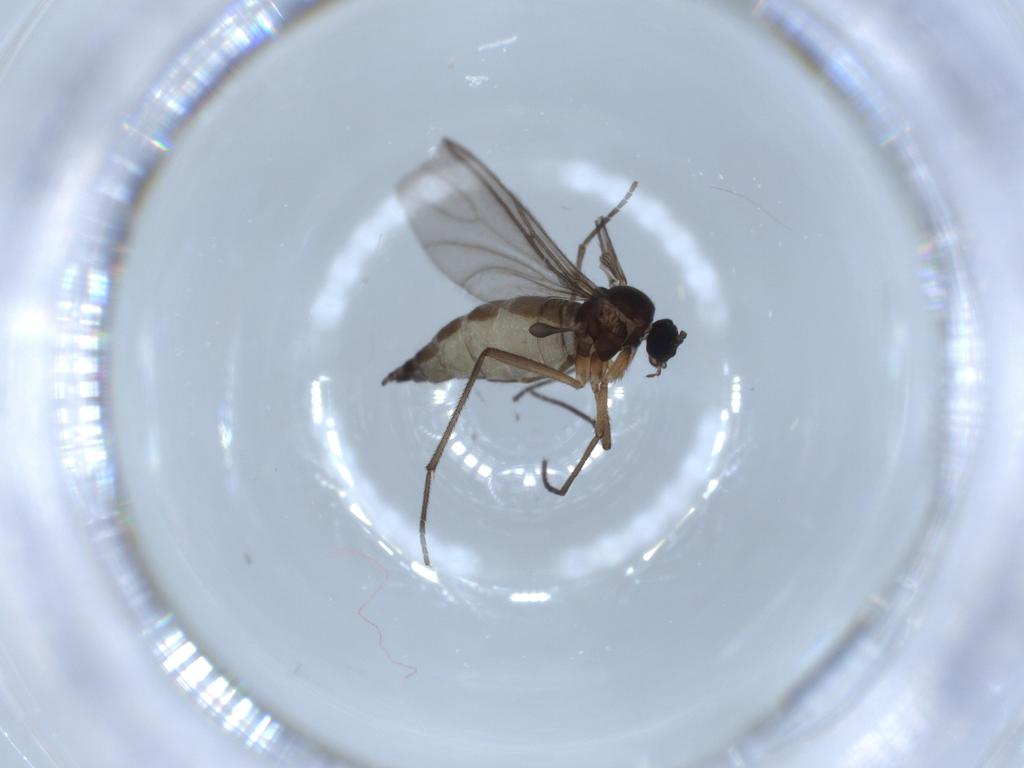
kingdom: Animalia
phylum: Arthropoda
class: Insecta
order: Diptera
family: Sciaridae
